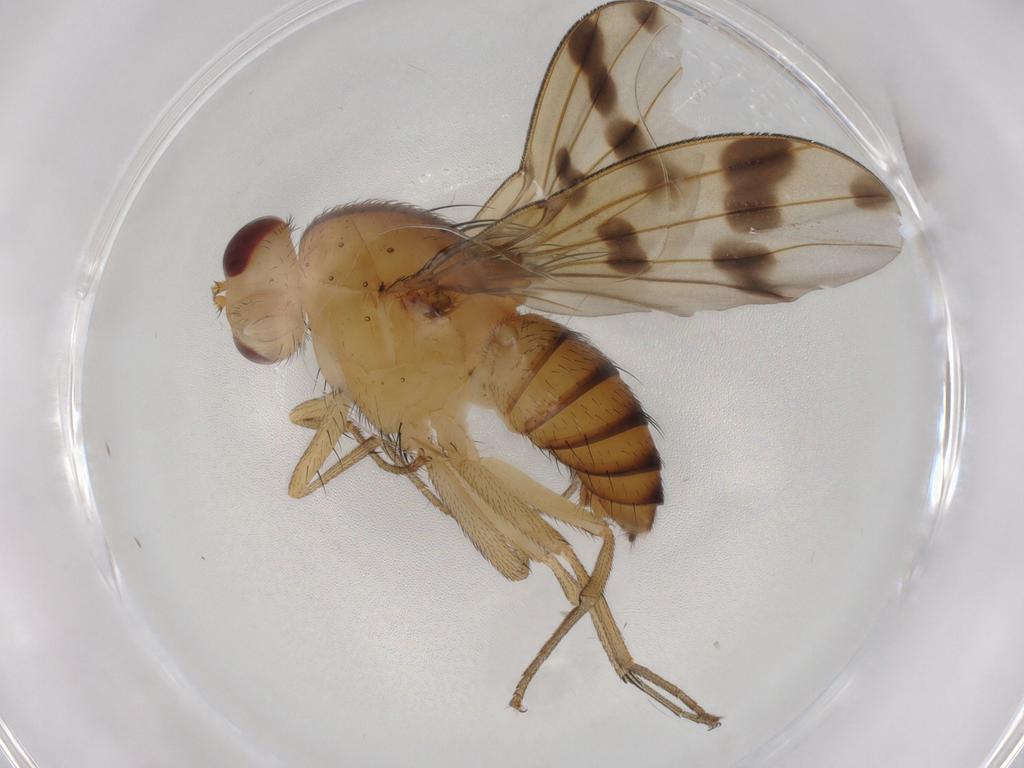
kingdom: Animalia
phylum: Arthropoda
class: Insecta
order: Diptera
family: Chironomidae
